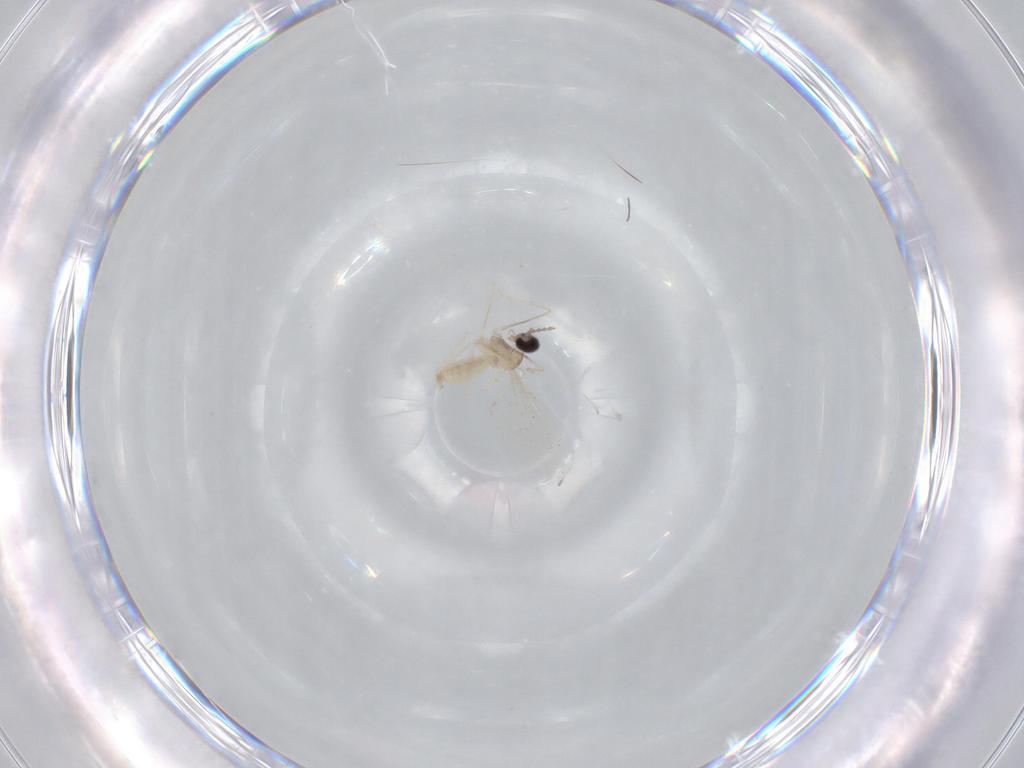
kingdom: Animalia
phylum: Arthropoda
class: Insecta
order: Diptera
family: Cecidomyiidae
